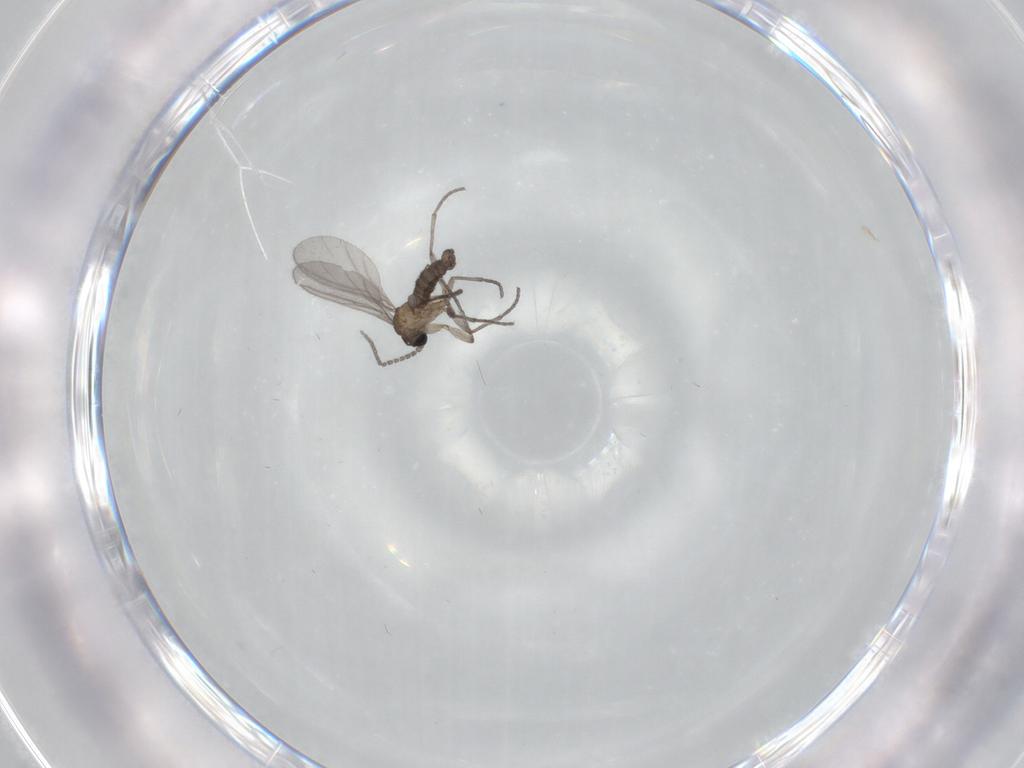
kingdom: Animalia
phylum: Arthropoda
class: Insecta
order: Diptera
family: Sciaridae
